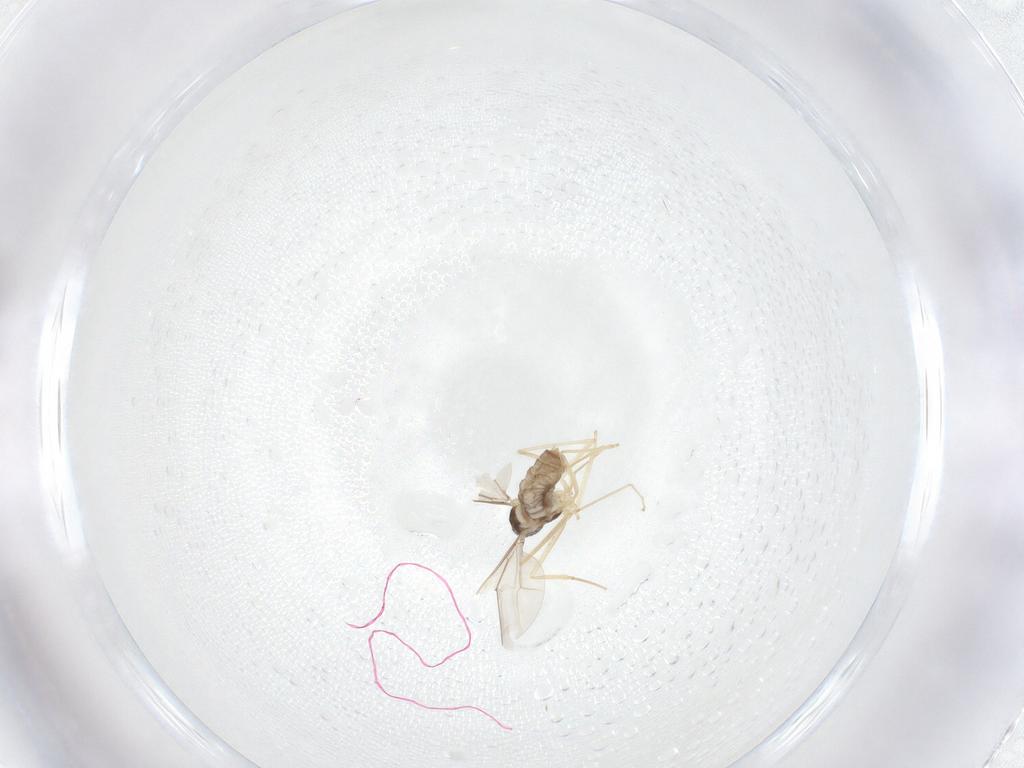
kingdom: Animalia
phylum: Arthropoda
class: Insecta
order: Diptera
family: Cecidomyiidae
